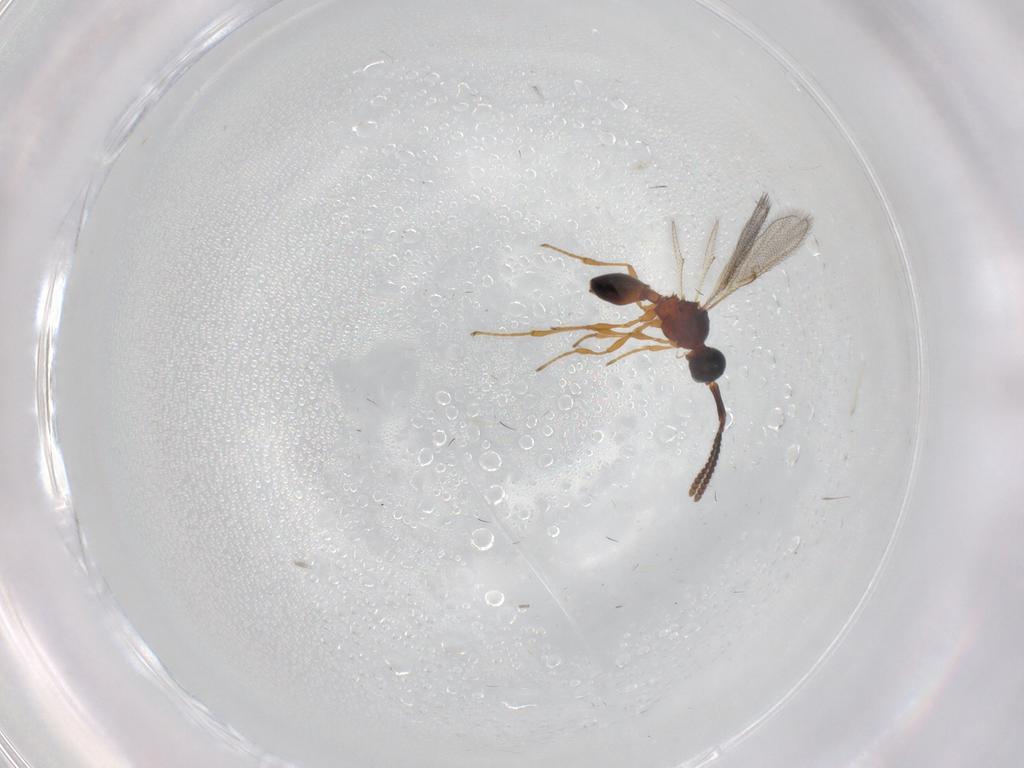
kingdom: Animalia
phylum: Arthropoda
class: Insecta
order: Hymenoptera
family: Diapriidae
